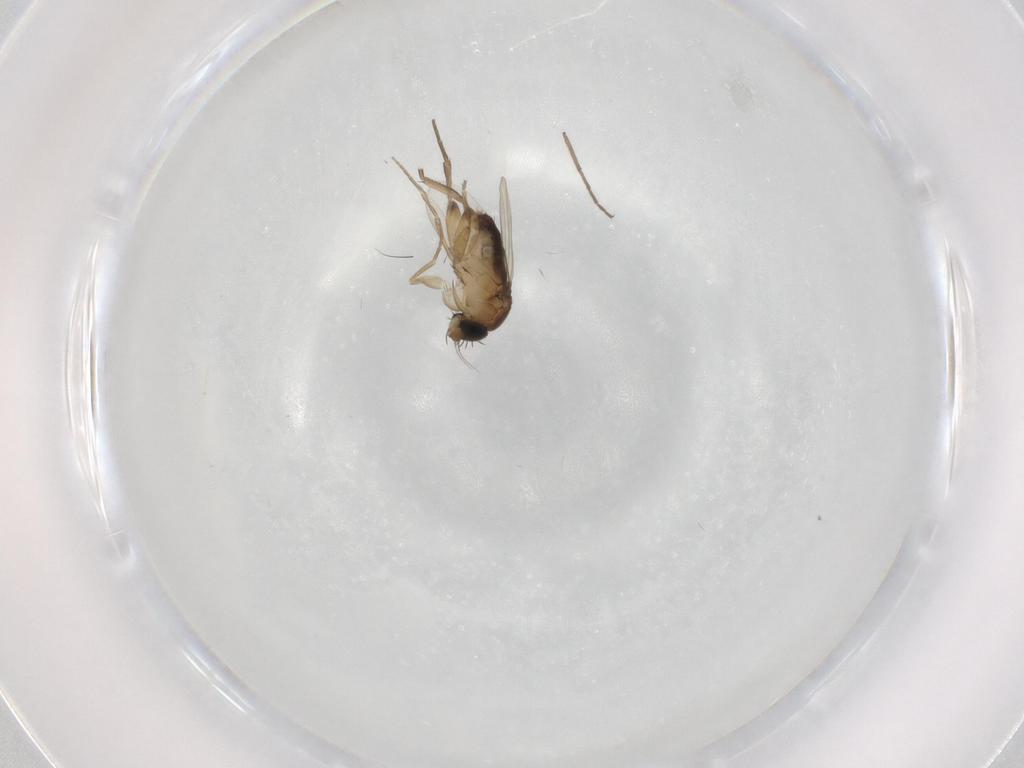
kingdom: Animalia
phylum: Arthropoda
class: Insecta
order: Diptera
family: Phoridae
